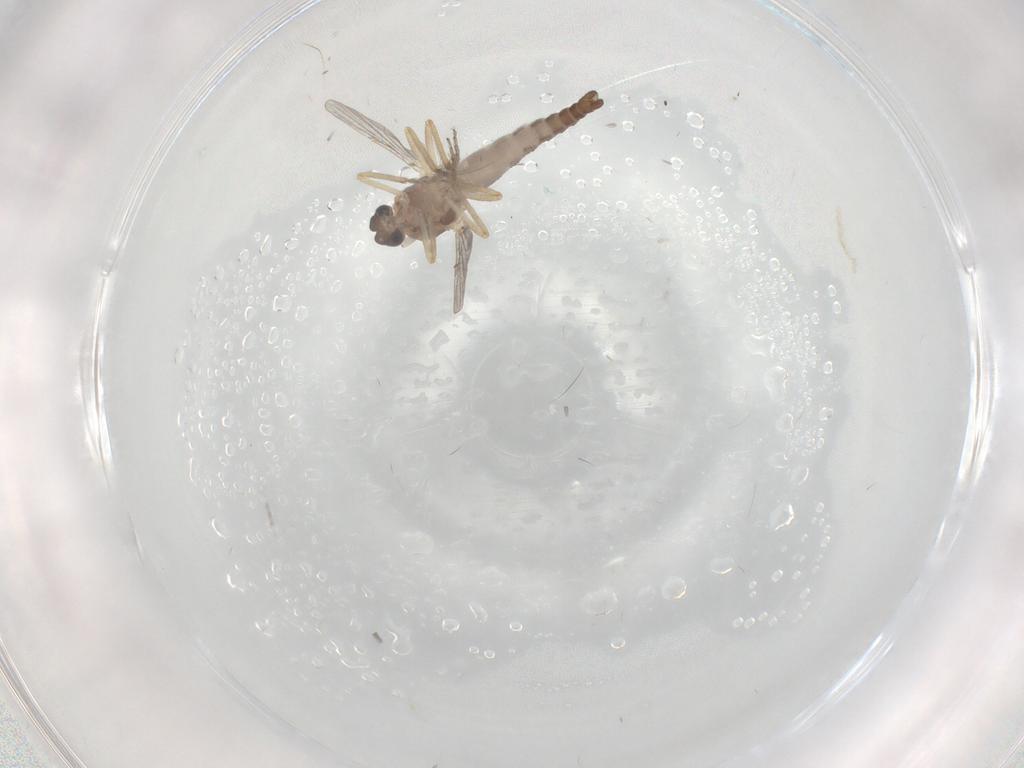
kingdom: Animalia
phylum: Arthropoda
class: Insecta
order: Diptera
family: Ceratopogonidae
